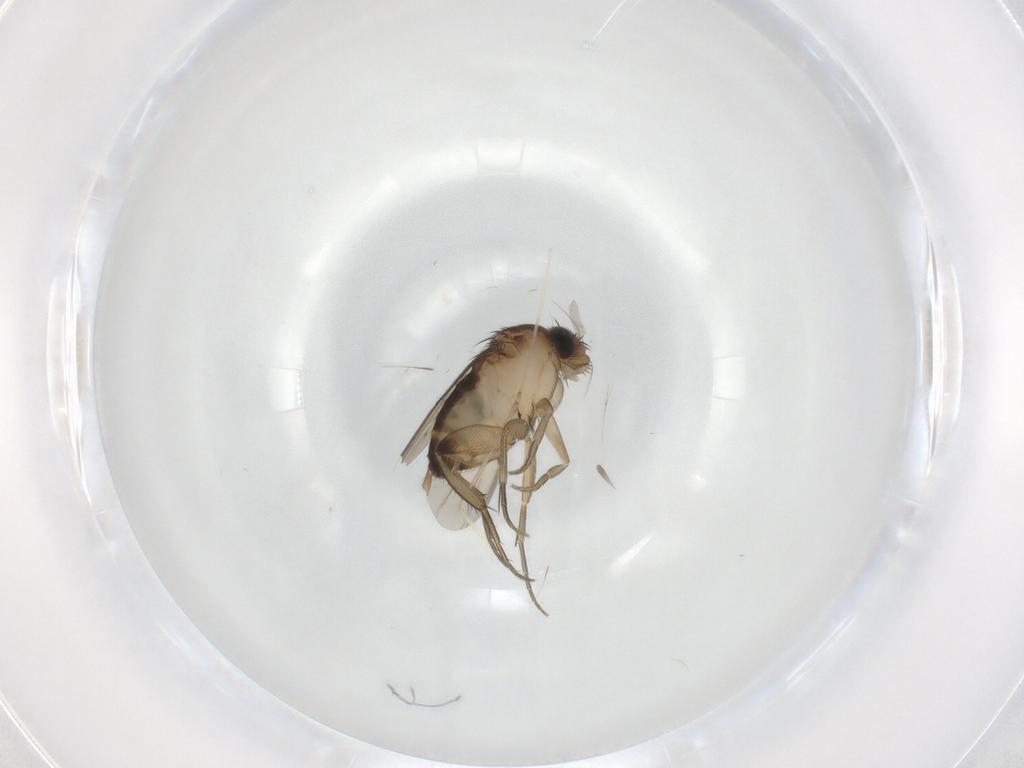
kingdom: Animalia
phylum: Arthropoda
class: Insecta
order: Diptera
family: Phoridae
